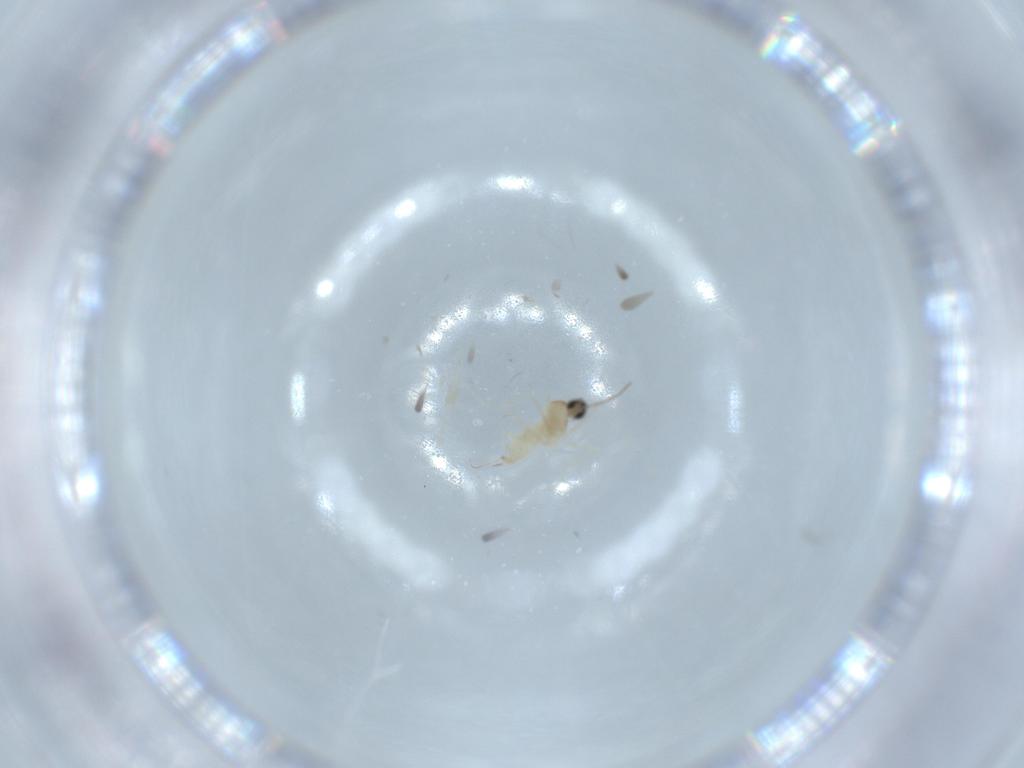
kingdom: Animalia
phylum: Arthropoda
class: Insecta
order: Diptera
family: Cecidomyiidae
